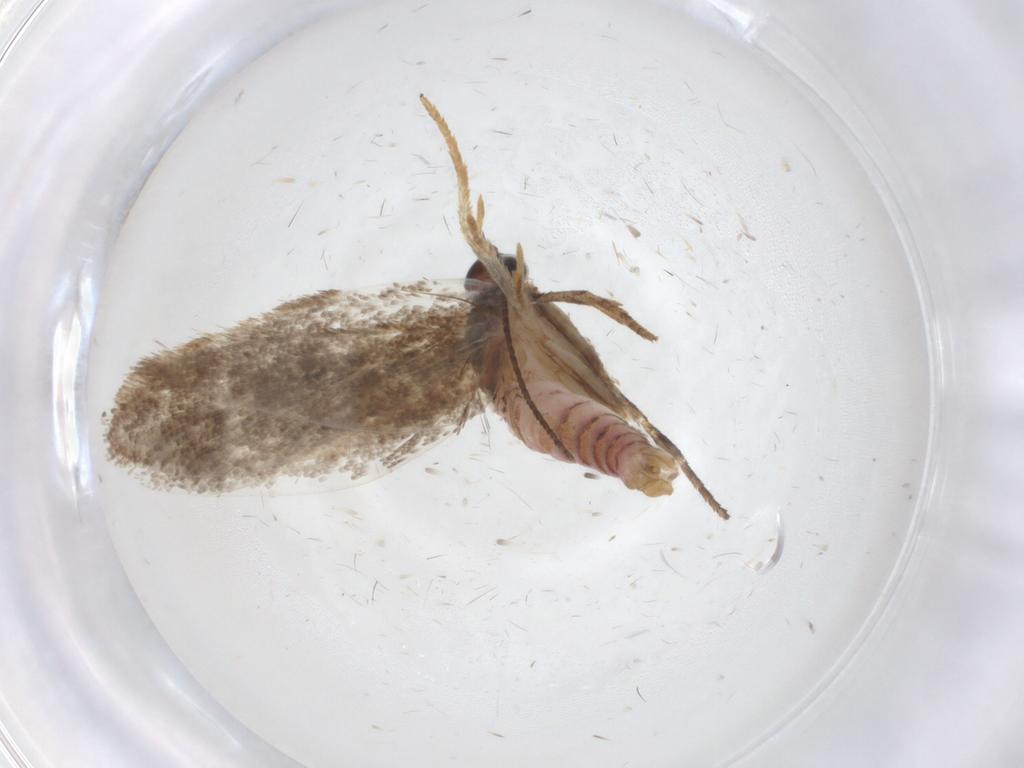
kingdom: Animalia
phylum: Arthropoda
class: Insecta
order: Lepidoptera
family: Oecophoridae
